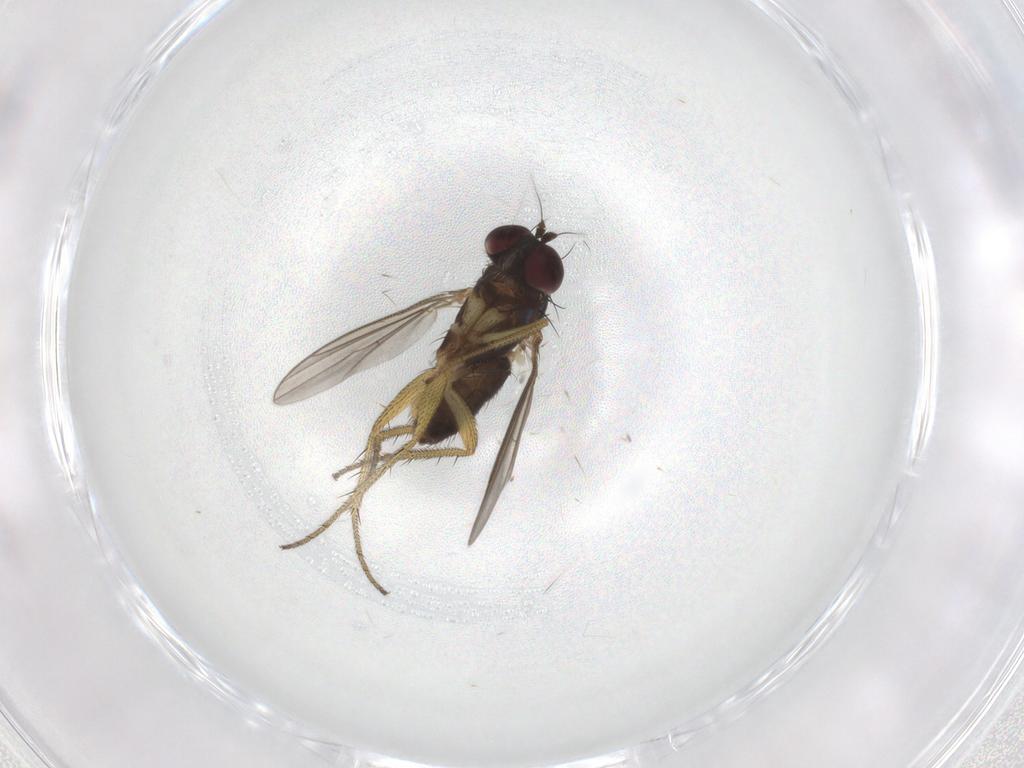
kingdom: Animalia
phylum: Arthropoda
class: Insecta
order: Diptera
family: Dolichopodidae
